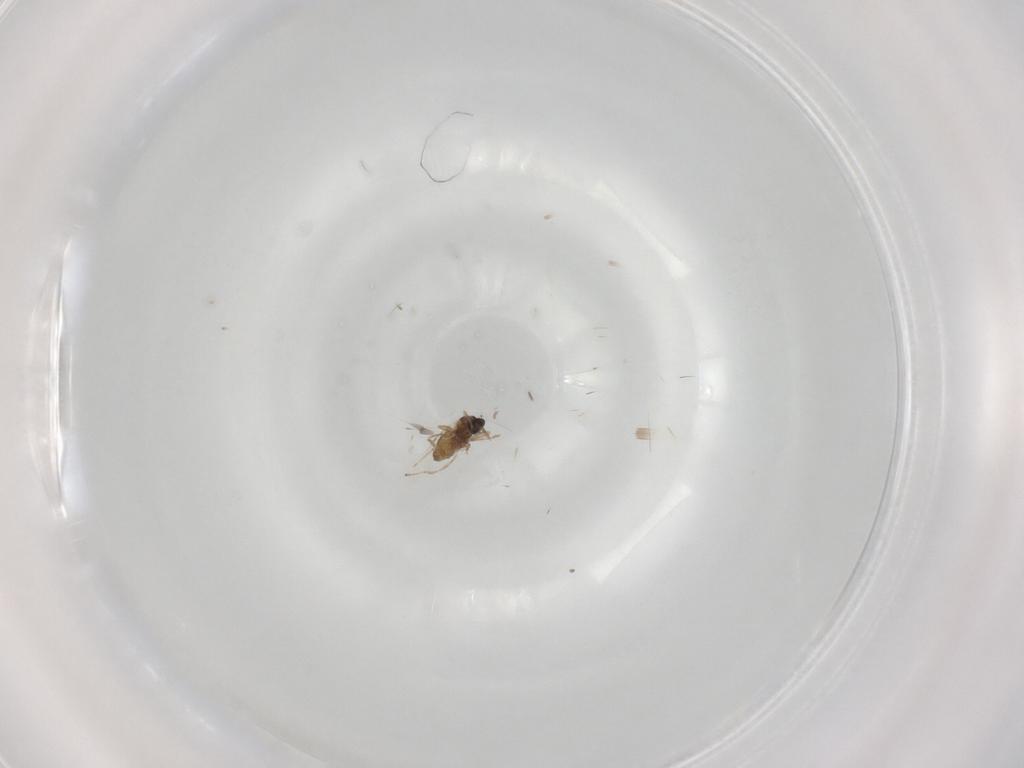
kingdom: Animalia
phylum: Arthropoda
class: Insecta
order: Diptera
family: Cecidomyiidae
